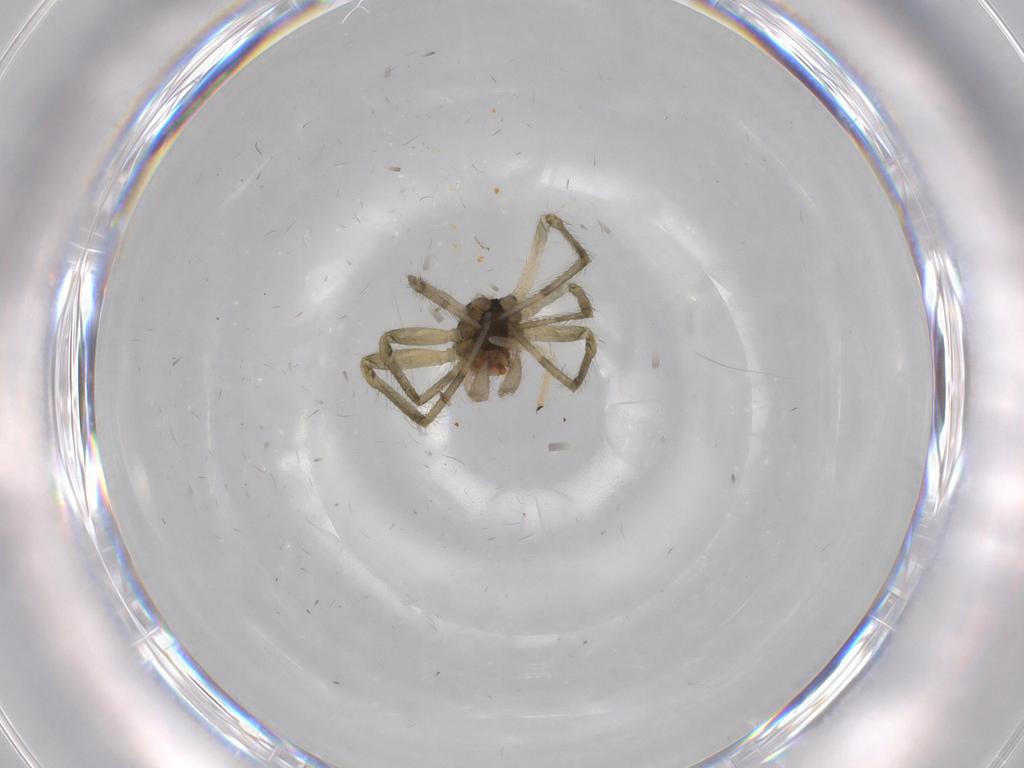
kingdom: Animalia
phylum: Arthropoda
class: Arachnida
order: Araneae
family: Nesticidae
